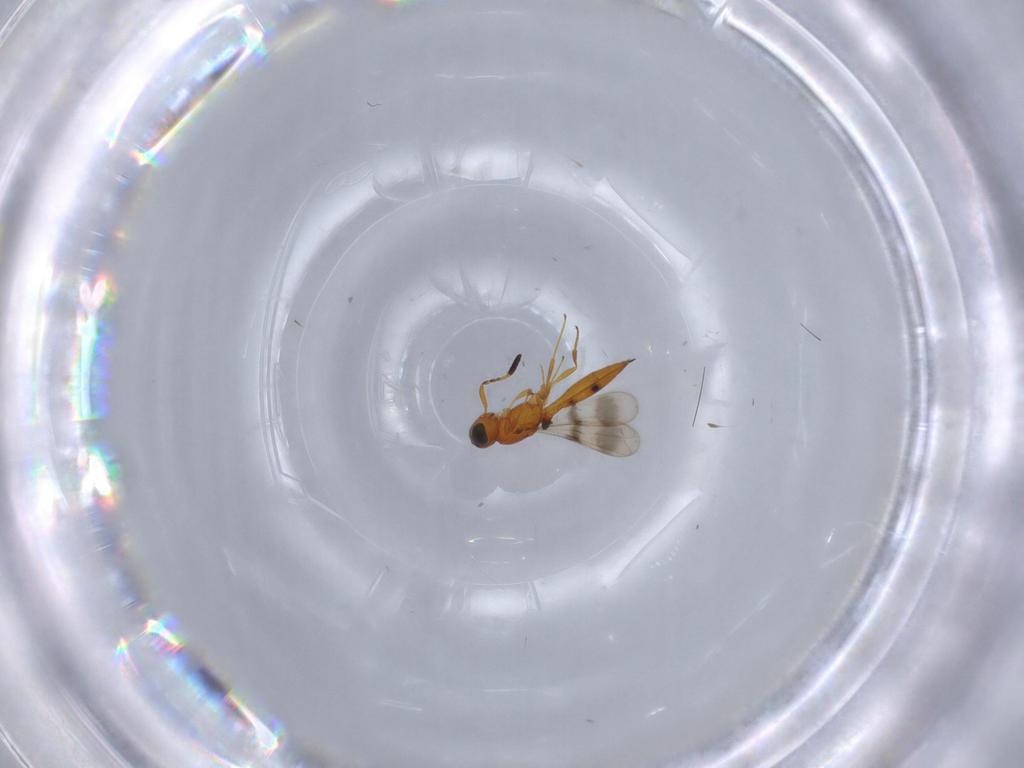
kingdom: Animalia
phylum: Arthropoda
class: Insecta
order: Hymenoptera
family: Scelionidae
